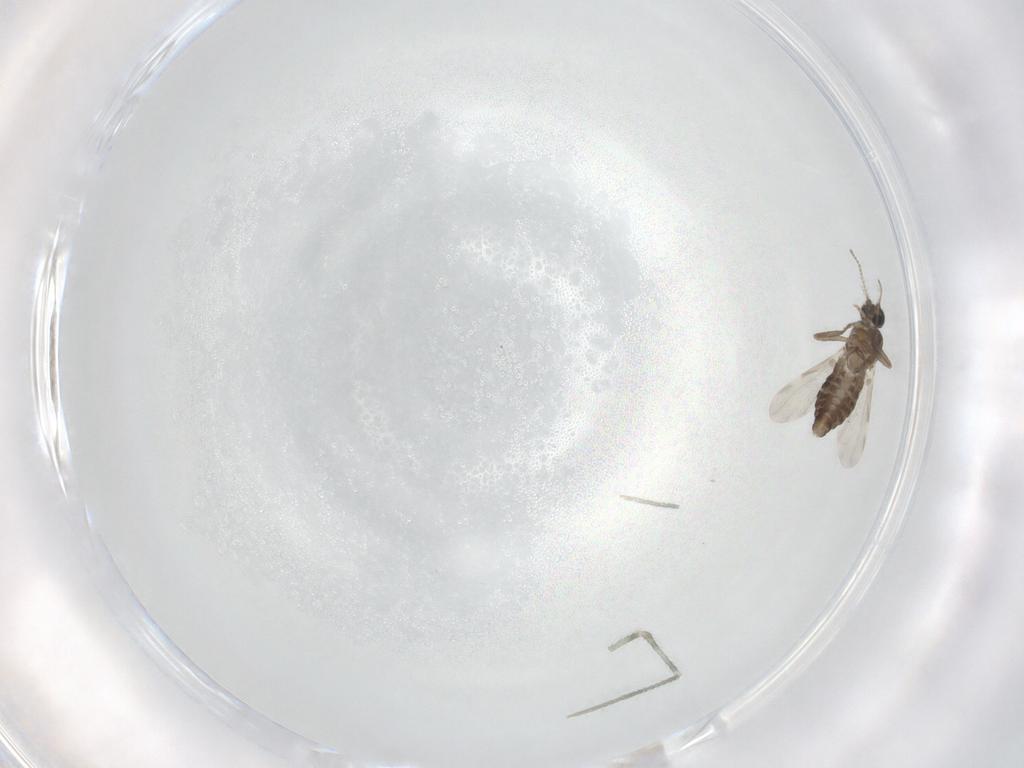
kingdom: Animalia
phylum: Arthropoda
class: Insecta
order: Diptera
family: Ceratopogonidae
